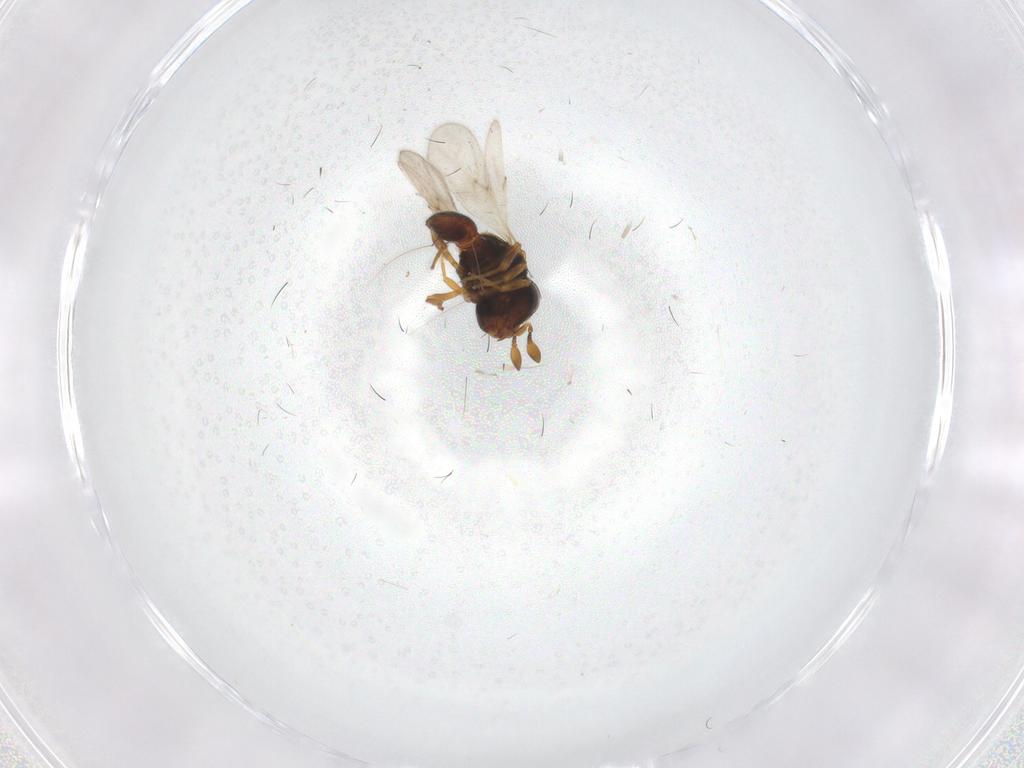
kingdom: Animalia
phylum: Arthropoda
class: Insecta
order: Hymenoptera
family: Scelionidae
